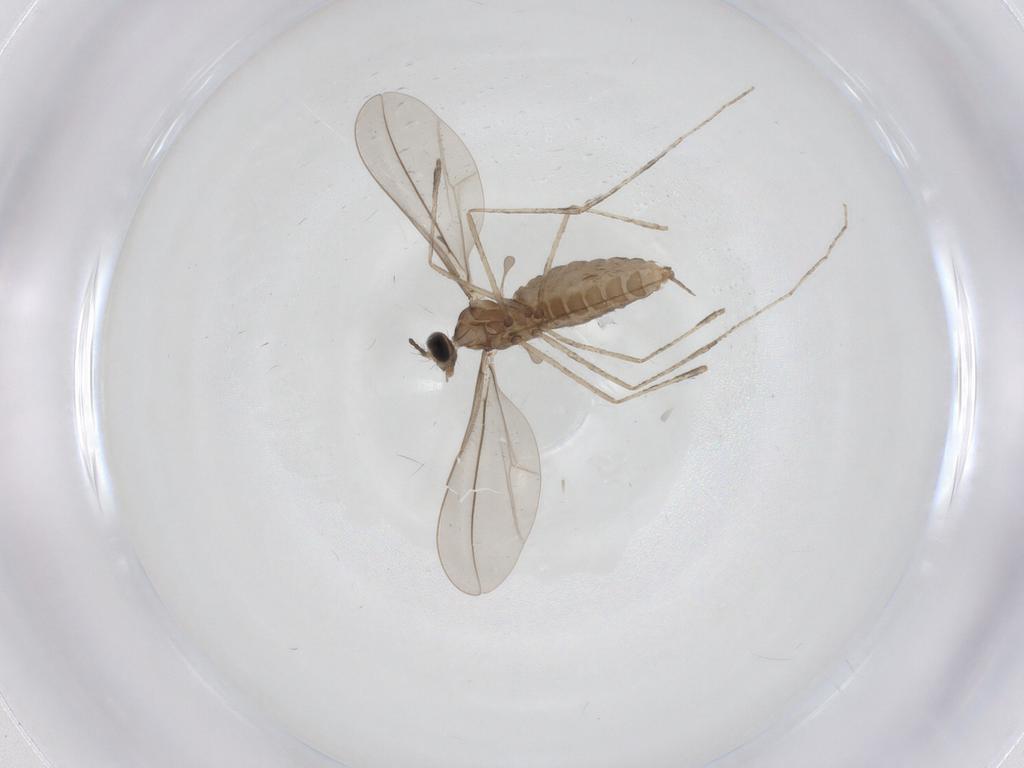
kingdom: Animalia
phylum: Arthropoda
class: Insecta
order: Diptera
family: Cecidomyiidae
